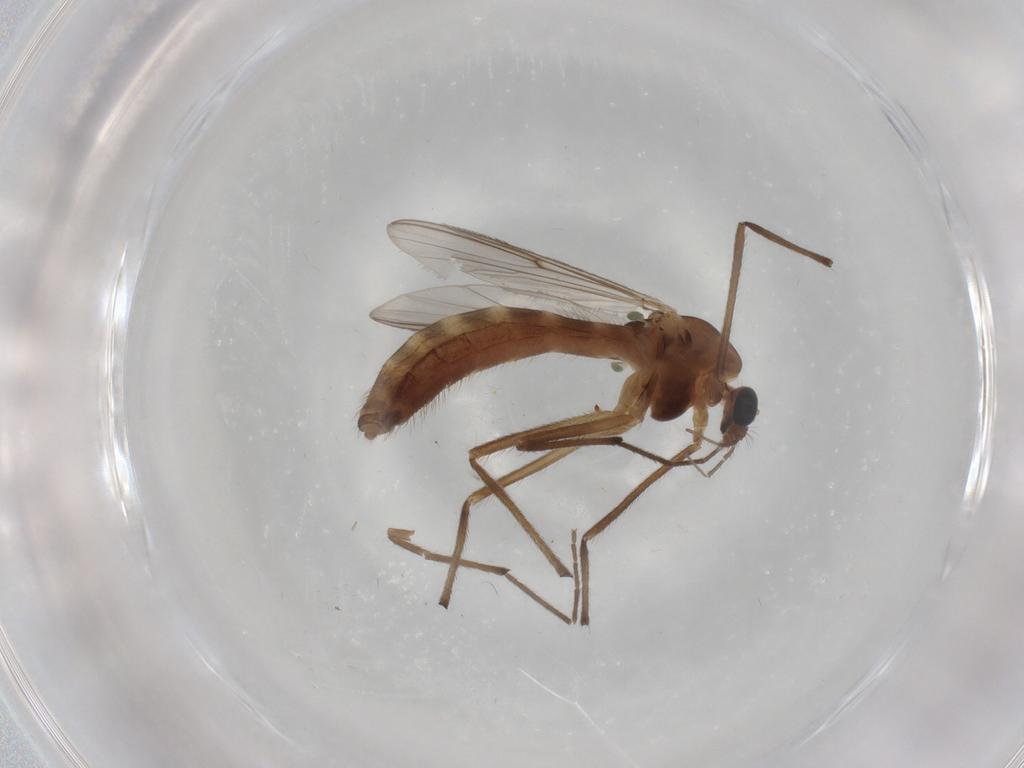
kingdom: Animalia
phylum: Arthropoda
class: Insecta
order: Diptera
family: Chironomidae
